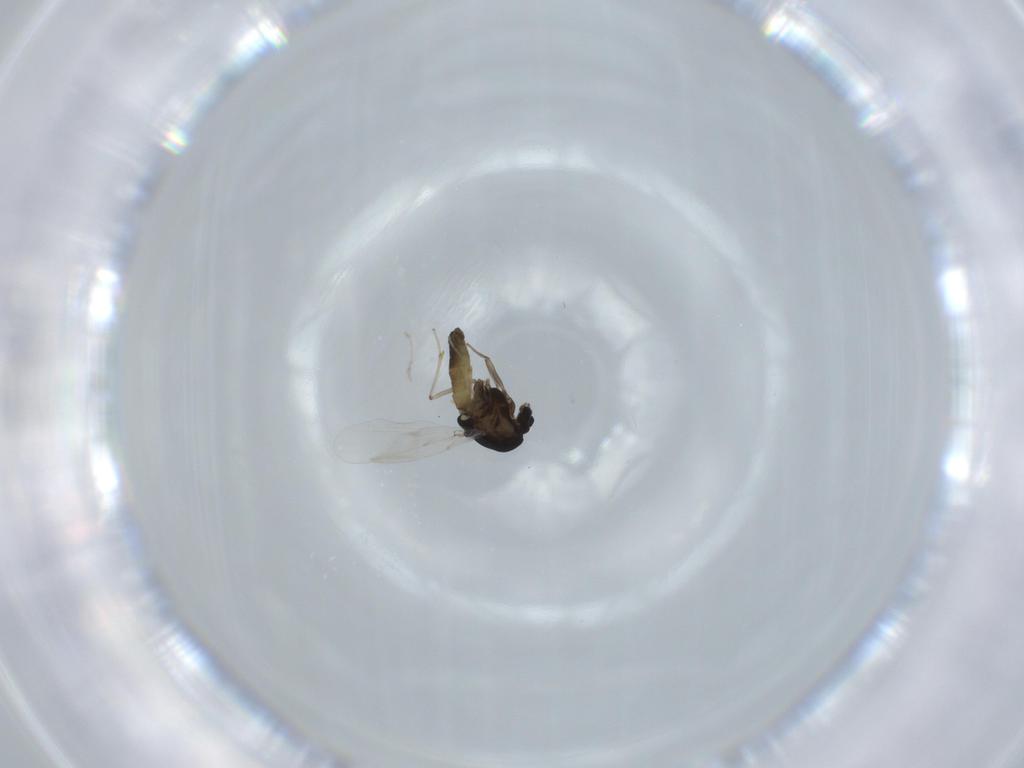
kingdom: Animalia
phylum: Arthropoda
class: Insecta
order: Diptera
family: Chironomidae
